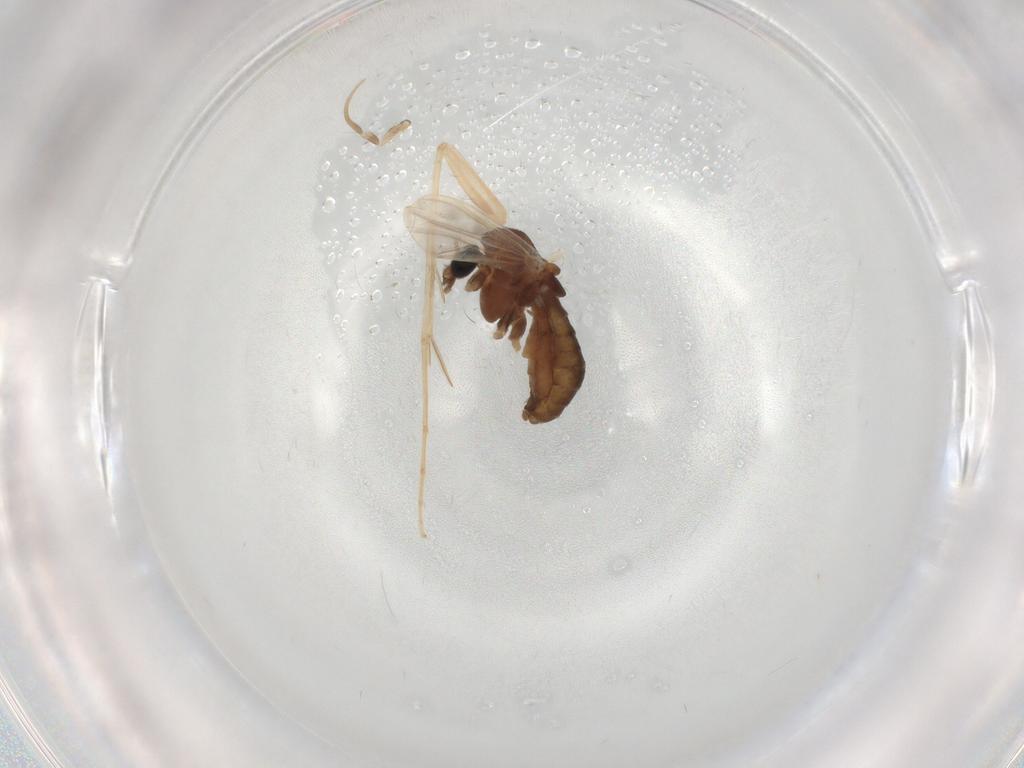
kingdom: Animalia
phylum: Arthropoda
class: Insecta
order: Diptera
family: Chironomidae
